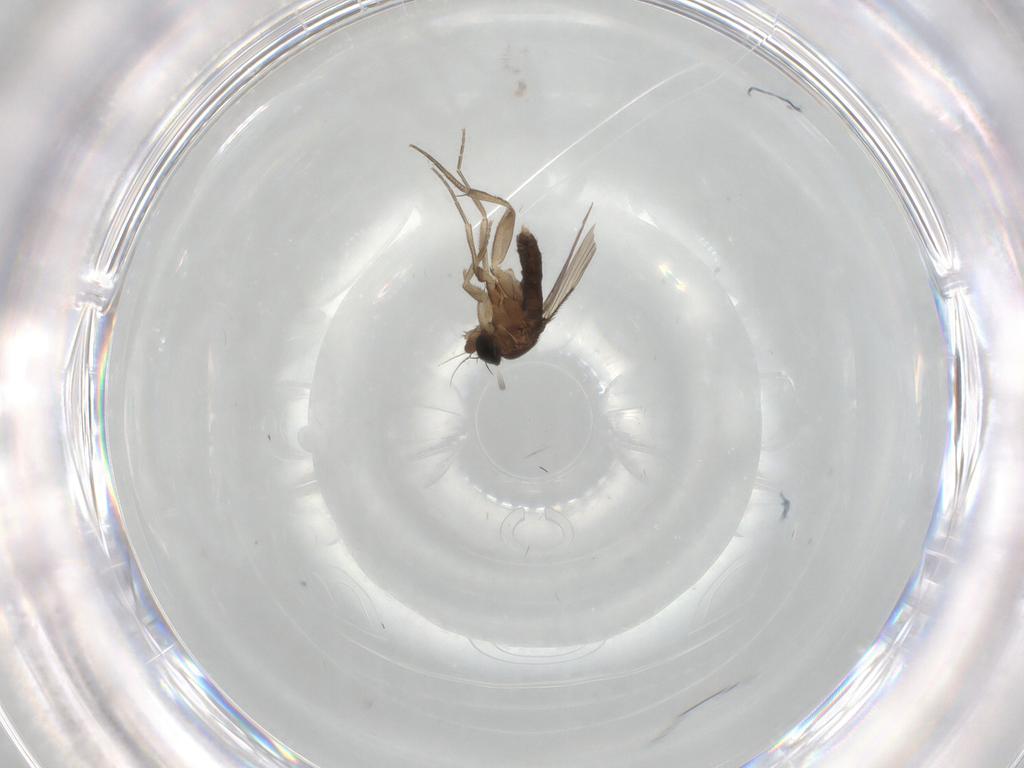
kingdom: Animalia
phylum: Arthropoda
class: Insecta
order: Diptera
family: Phoridae
